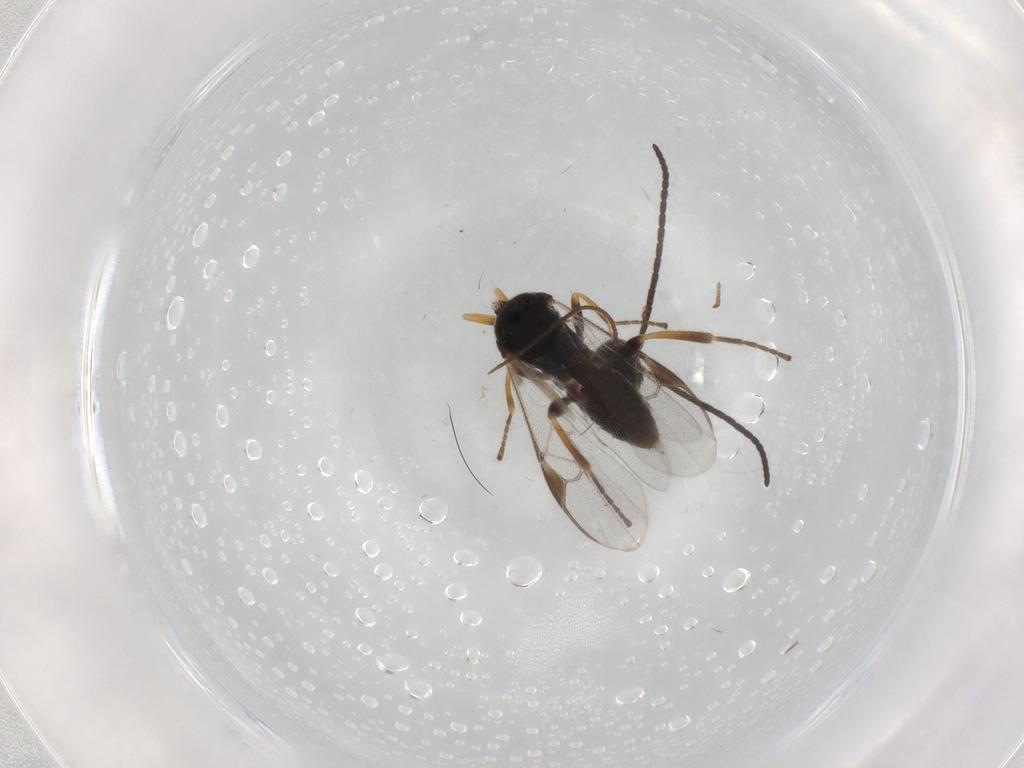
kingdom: Animalia
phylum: Arthropoda
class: Insecta
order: Hymenoptera
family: Braconidae
